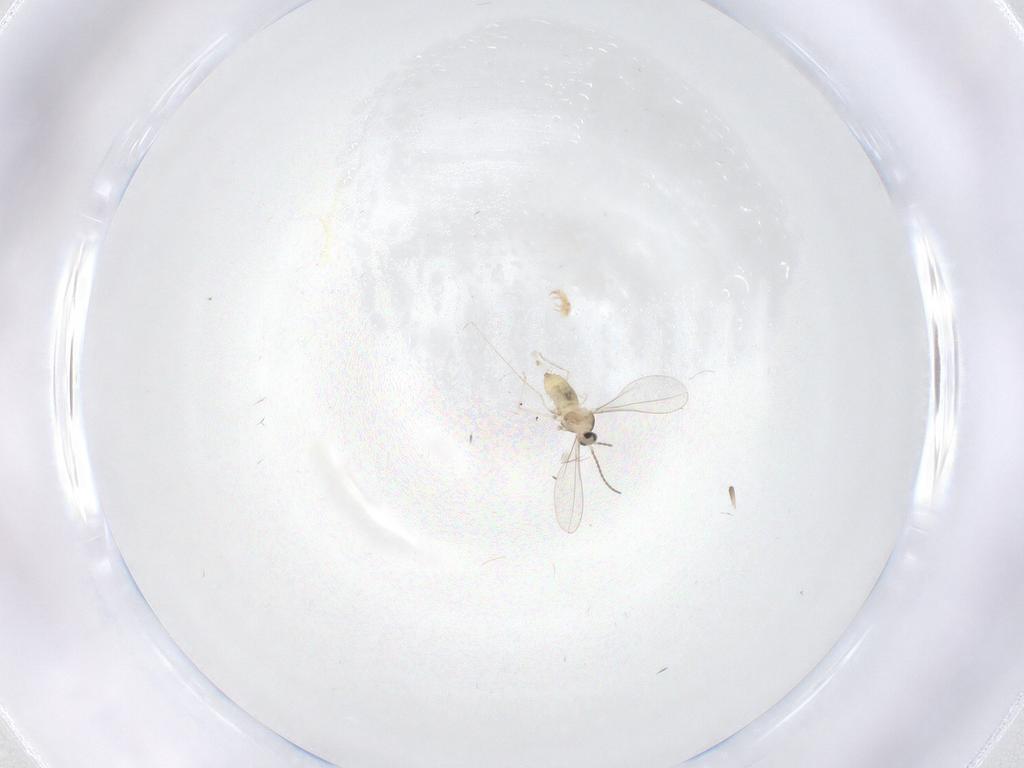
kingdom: Animalia
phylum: Arthropoda
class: Insecta
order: Diptera
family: Cecidomyiidae
